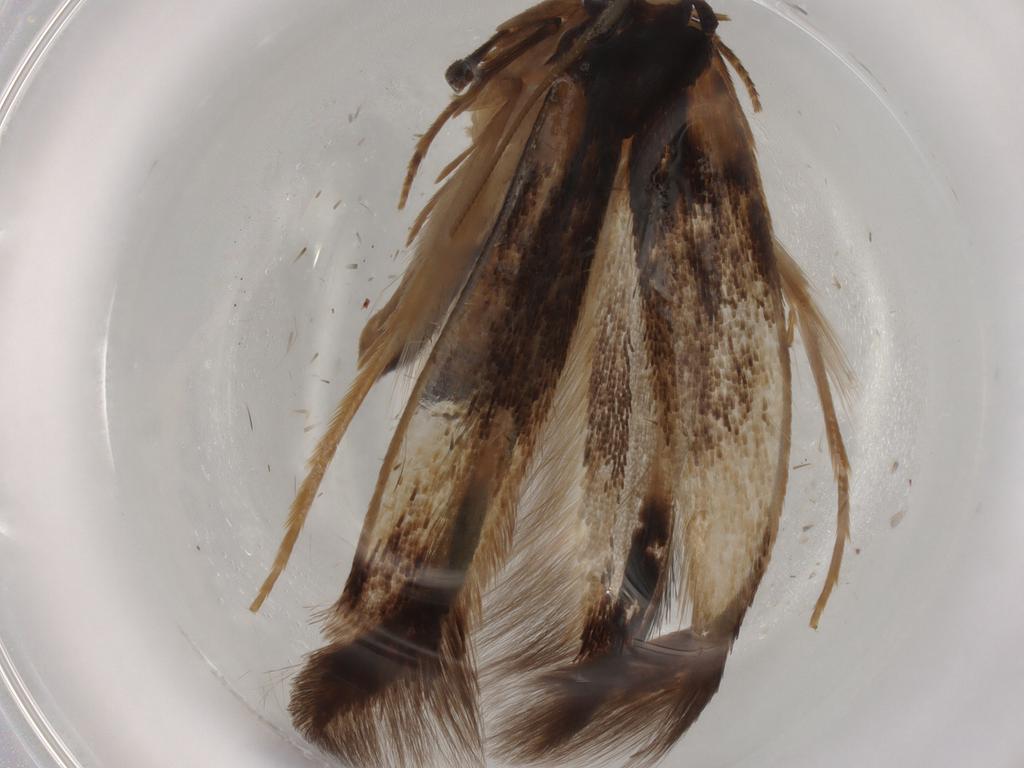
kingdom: Animalia
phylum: Arthropoda
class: Insecta
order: Lepidoptera
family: Tineidae
